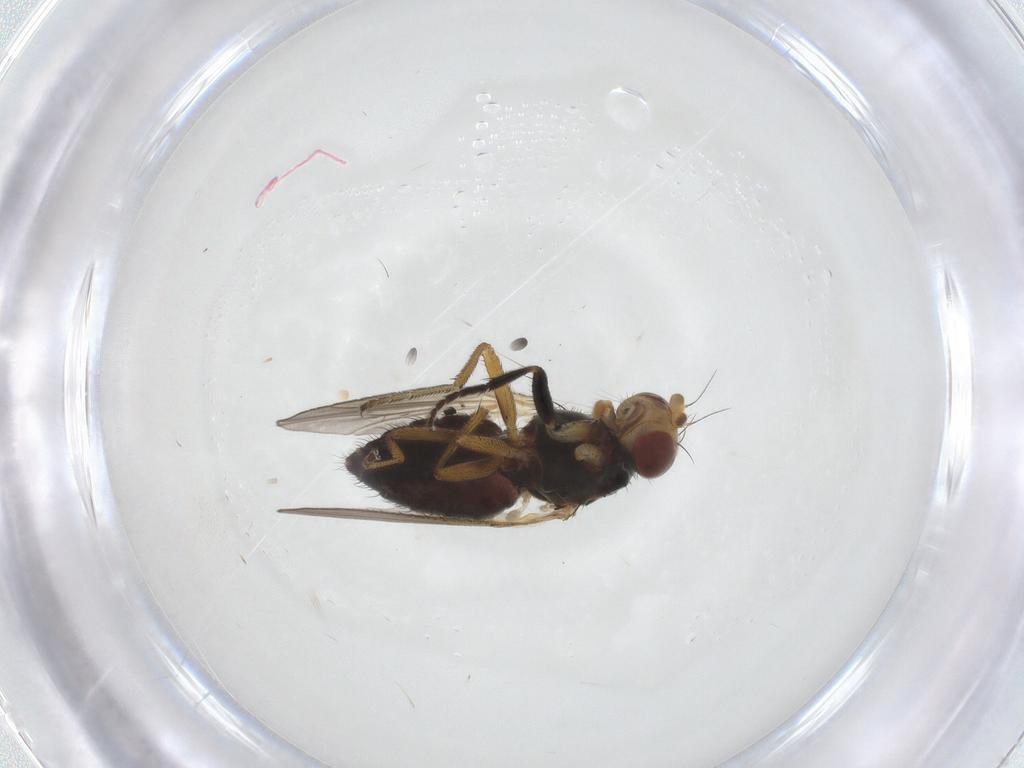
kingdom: Animalia
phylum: Arthropoda
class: Insecta
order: Diptera
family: Heleomyzidae
